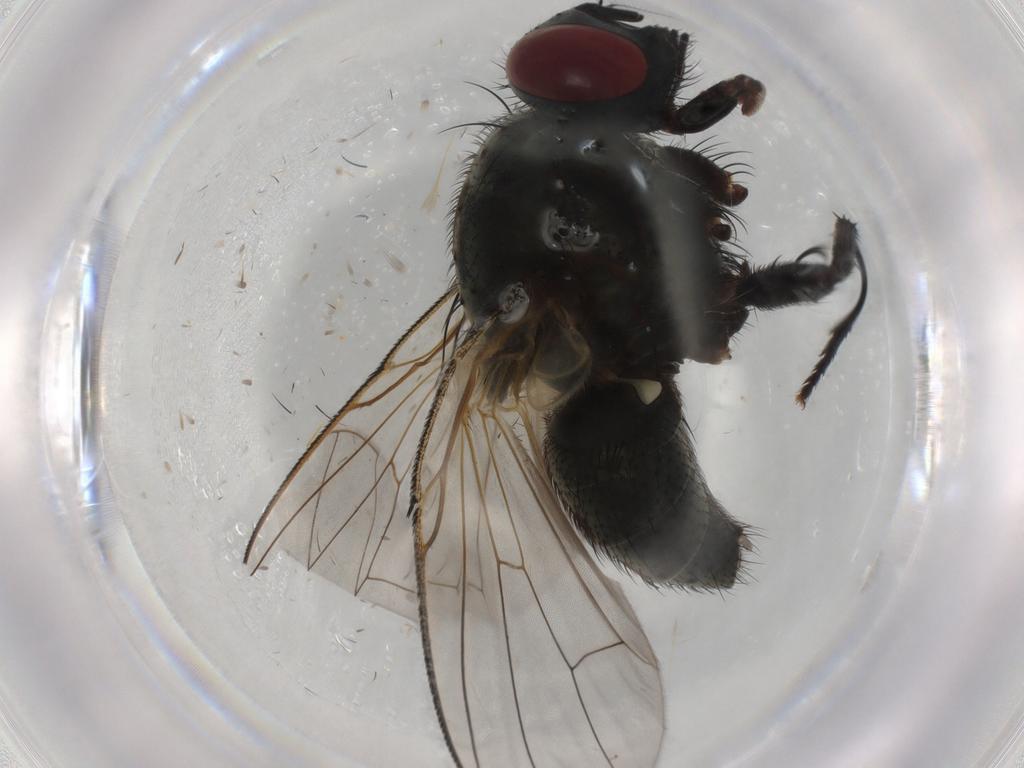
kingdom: Animalia
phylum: Arthropoda
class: Insecta
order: Diptera
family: Muscidae
